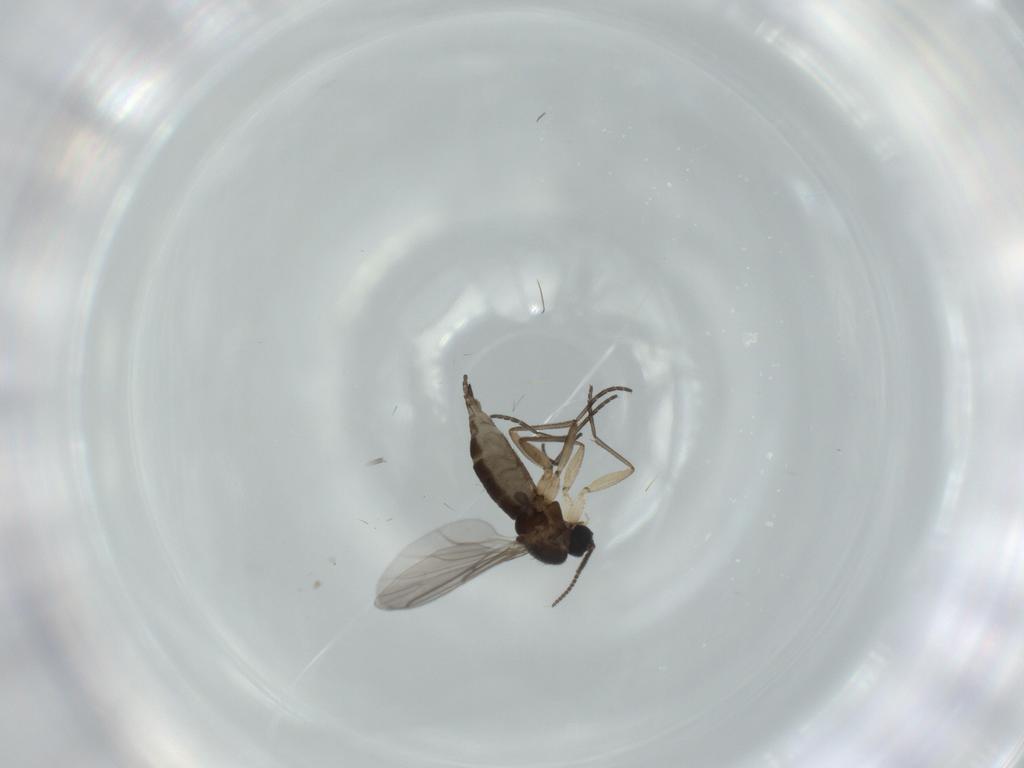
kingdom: Animalia
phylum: Arthropoda
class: Insecta
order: Diptera
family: Sciaridae
